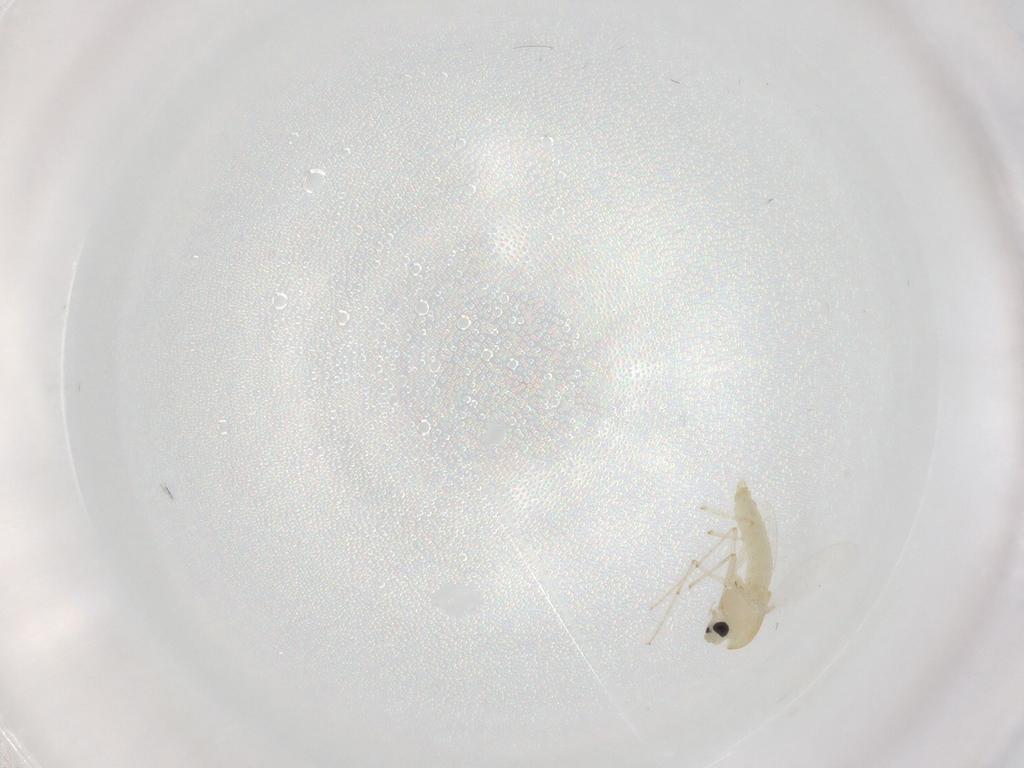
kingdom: Animalia
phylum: Arthropoda
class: Insecta
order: Diptera
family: Chironomidae
